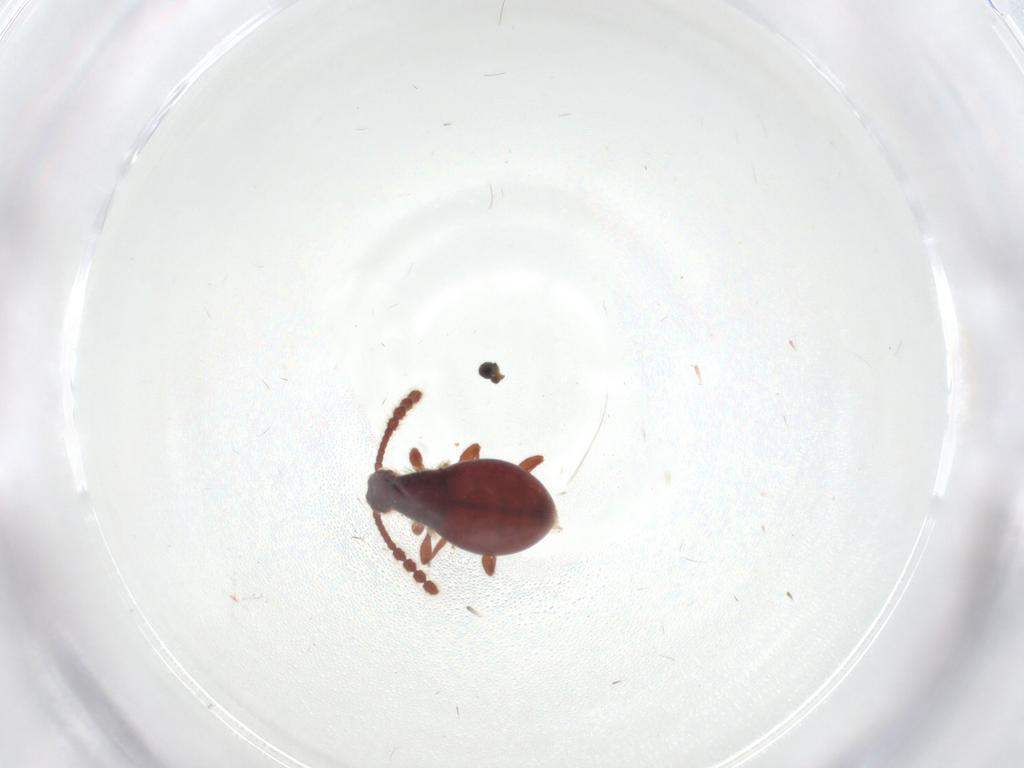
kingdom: Animalia
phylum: Arthropoda
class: Insecta
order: Coleoptera
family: Staphylinidae
